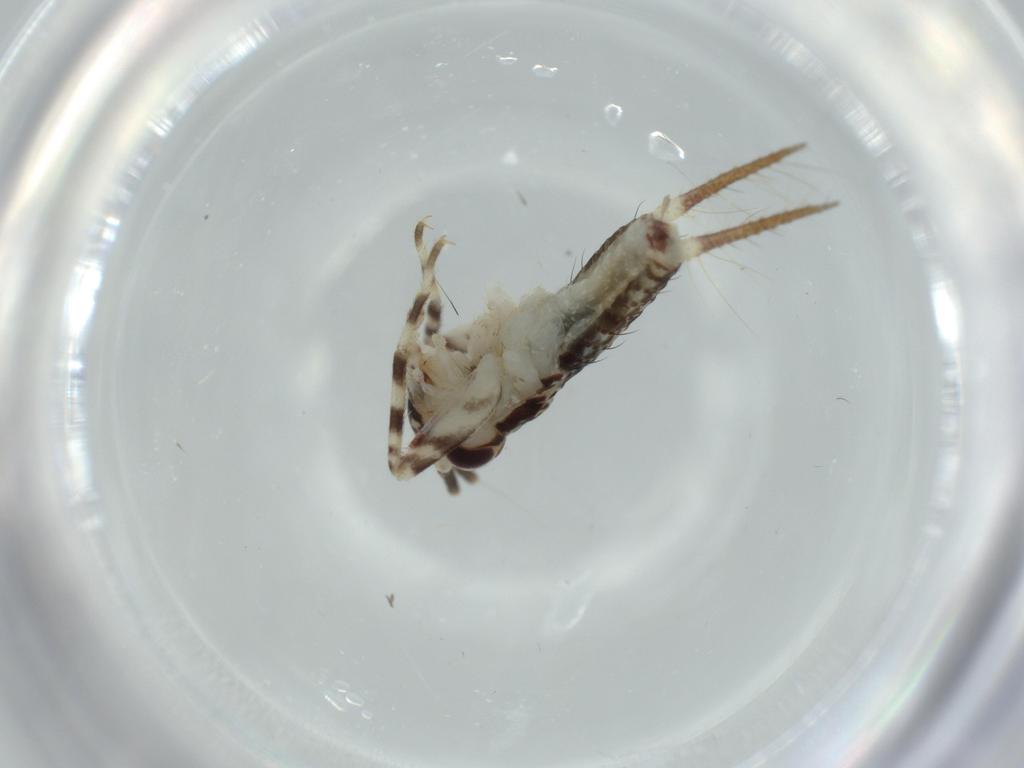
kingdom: Animalia
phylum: Arthropoda
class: Insecta
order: Orthoptera
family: Gryllidae
